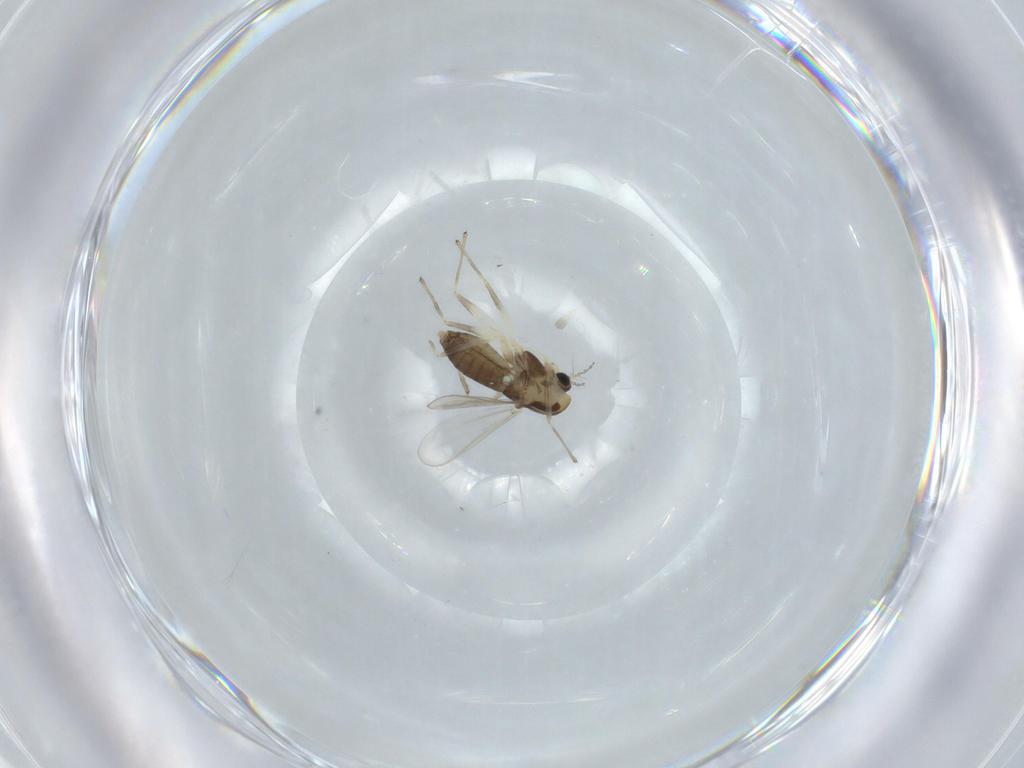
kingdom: Animalia
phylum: Arthropoda
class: Insecta
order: Diptera
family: Chironomidae
